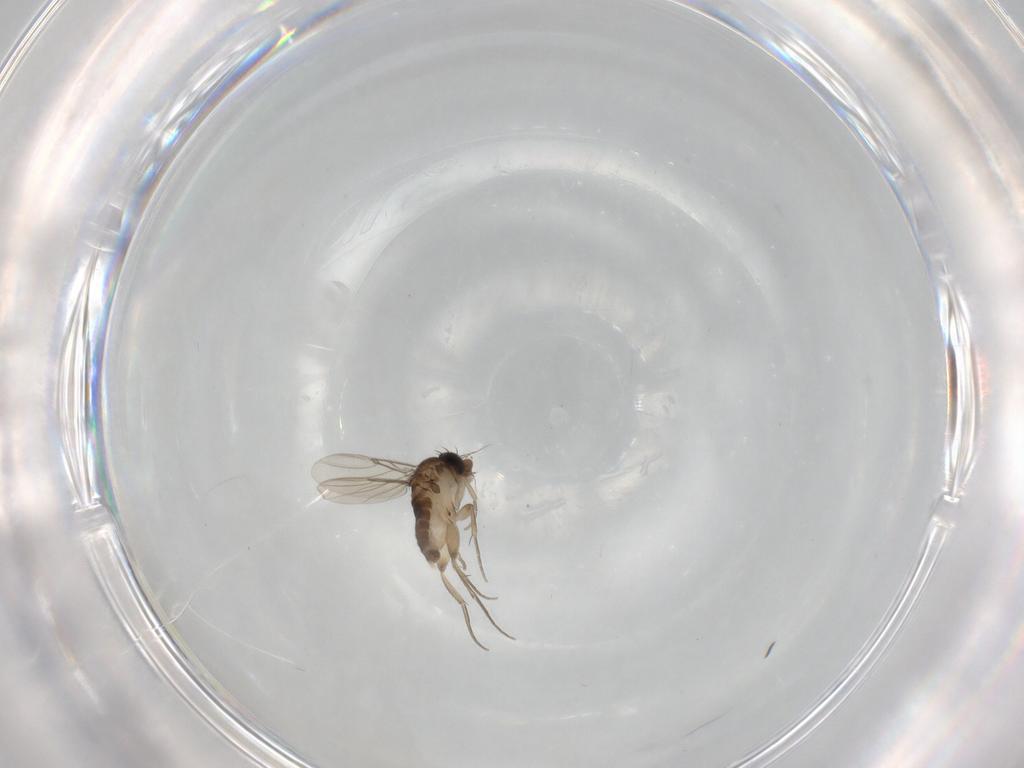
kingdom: Animalia
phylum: Arthropoda
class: Insecta
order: Diptera
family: Phoridae
